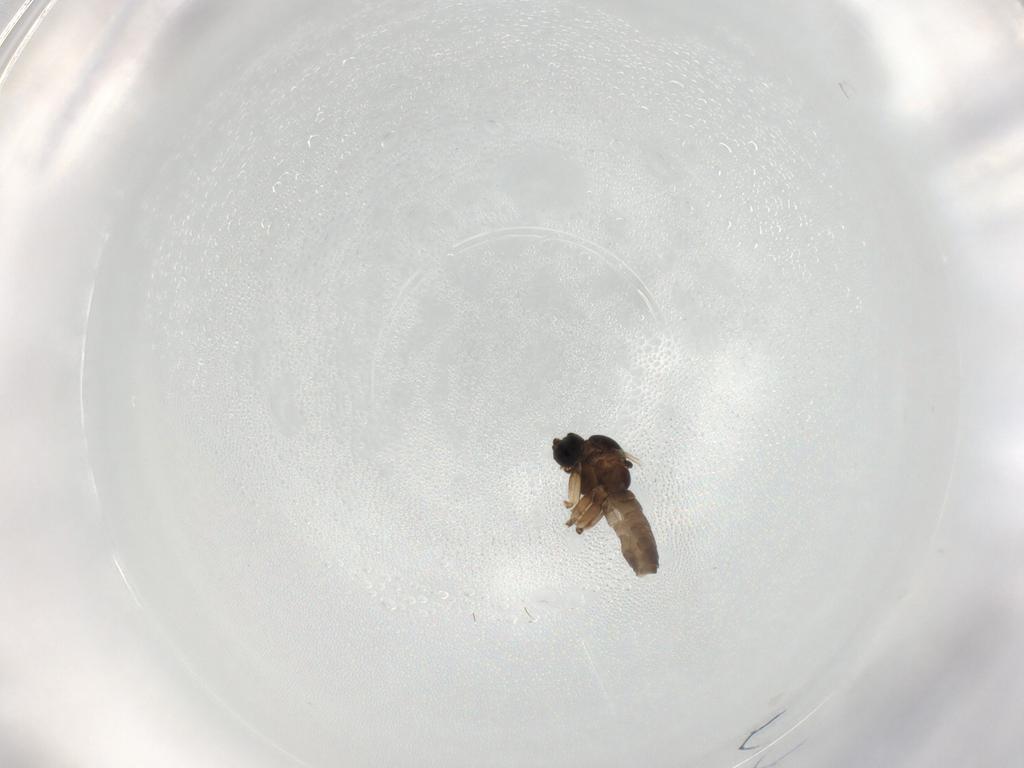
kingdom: Animalia
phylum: Arthropoda
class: Insecta
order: Diptera
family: Sciaridae
